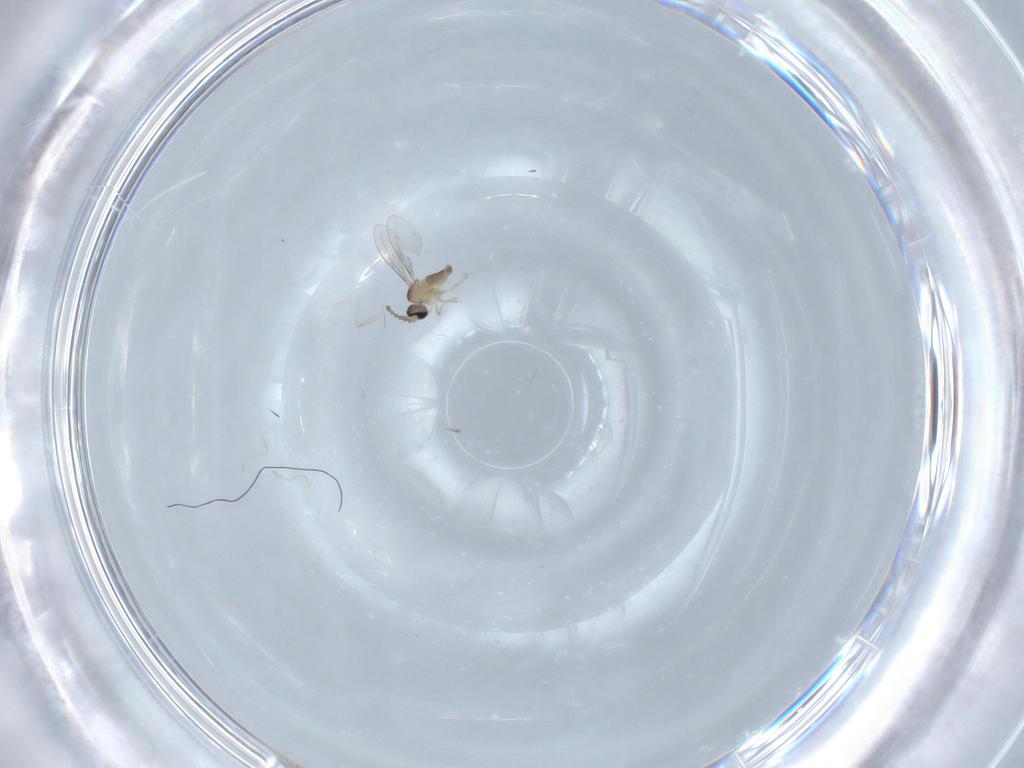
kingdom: Animalia
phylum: Arthropoda
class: Insecta
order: Diptera
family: Cecidomyiidae
